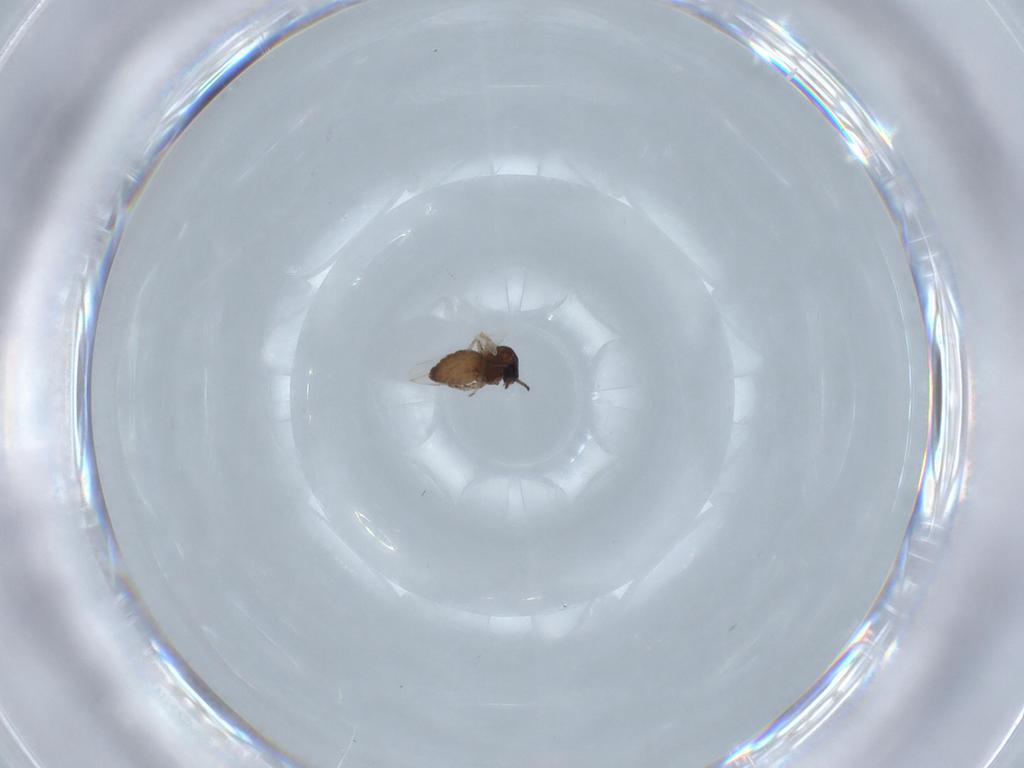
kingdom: Animalia
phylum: Arthropoda
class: Insecta
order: Diptera
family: Ceratopogonidae
